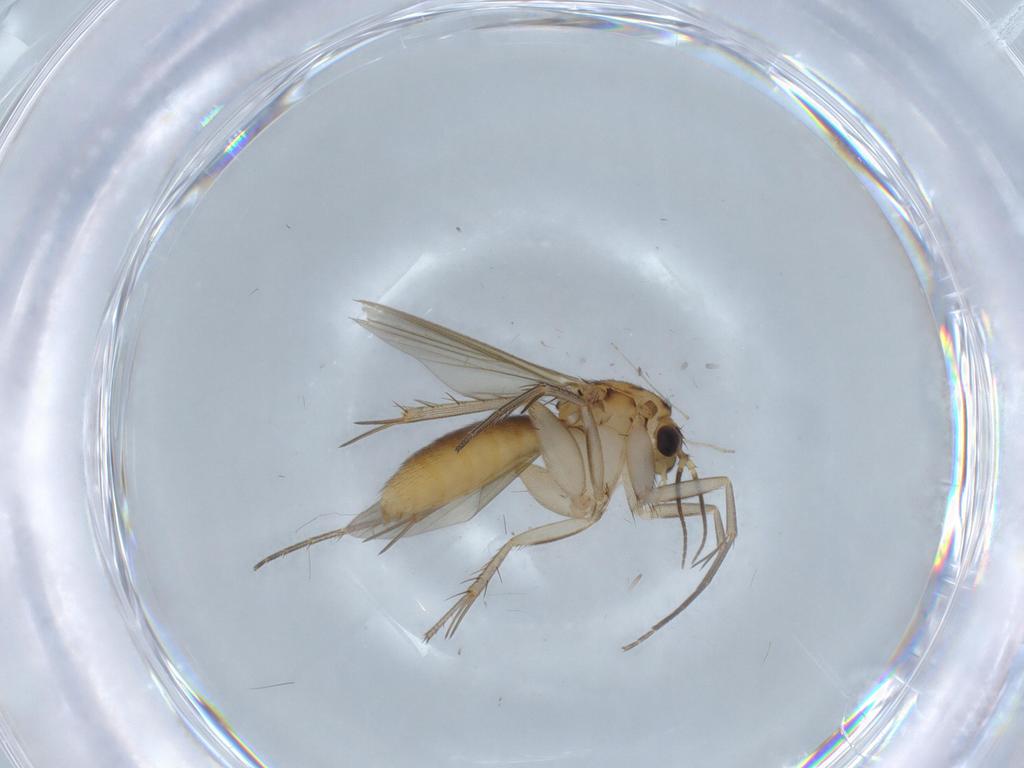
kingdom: Animalia
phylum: Arthropoda
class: Insecta
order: Diptera
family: Mycetophilidae
